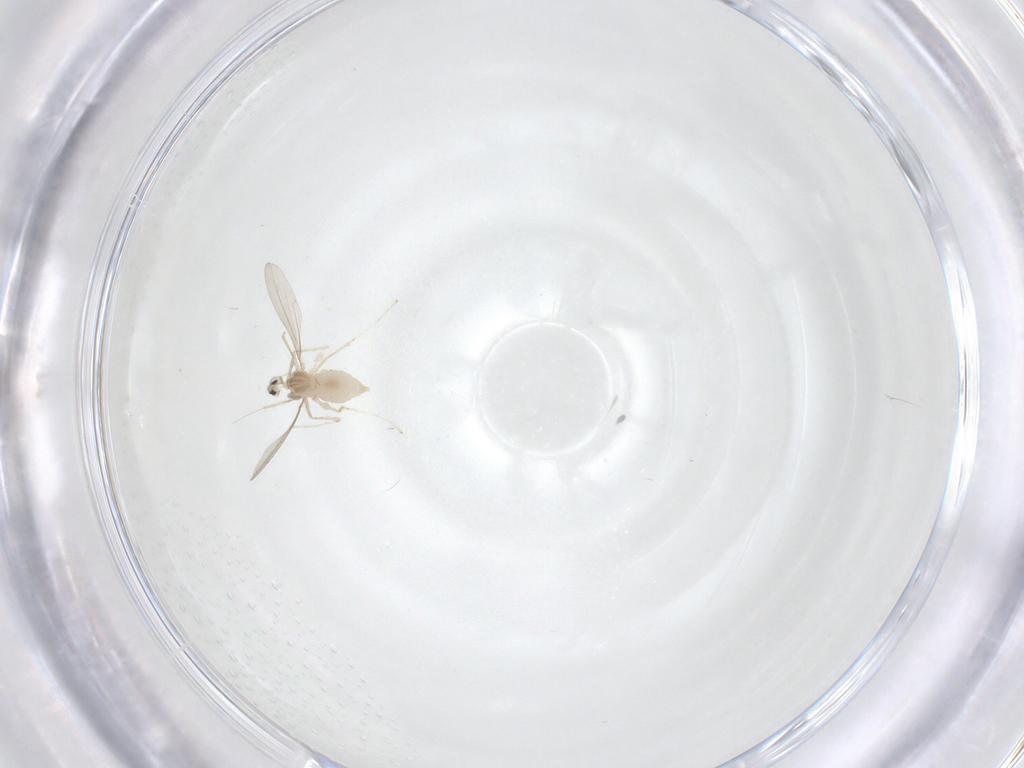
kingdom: Animalia
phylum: Arthropoda
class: Insecta
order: Diptera
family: Cecidomyiidae
